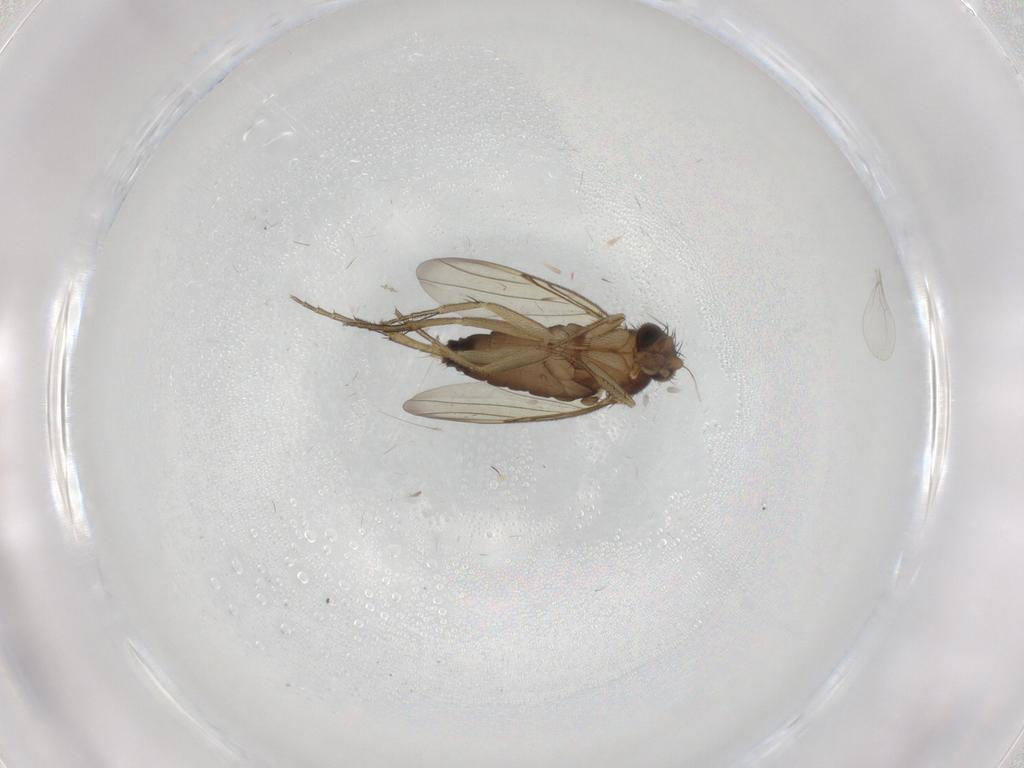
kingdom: Animalia
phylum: Arthropoda
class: Insecta
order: Diptera
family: Phoridae
